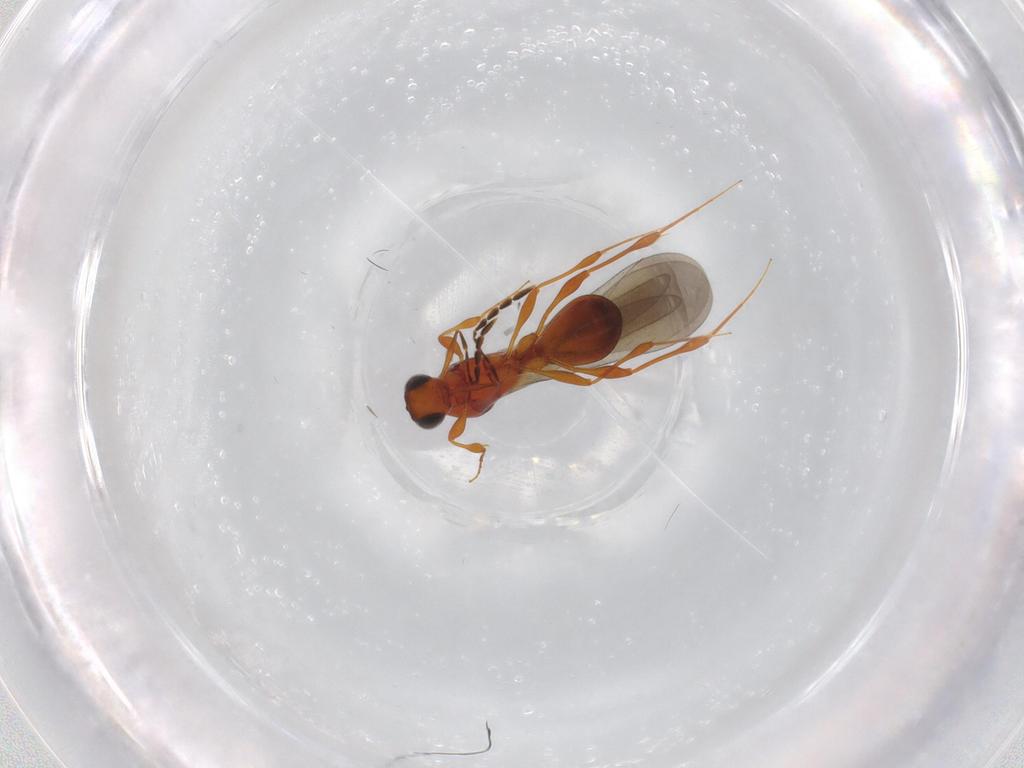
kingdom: Animalia
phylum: Arthropoda
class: Insecta
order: Hymenoptera
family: Platygastridae
